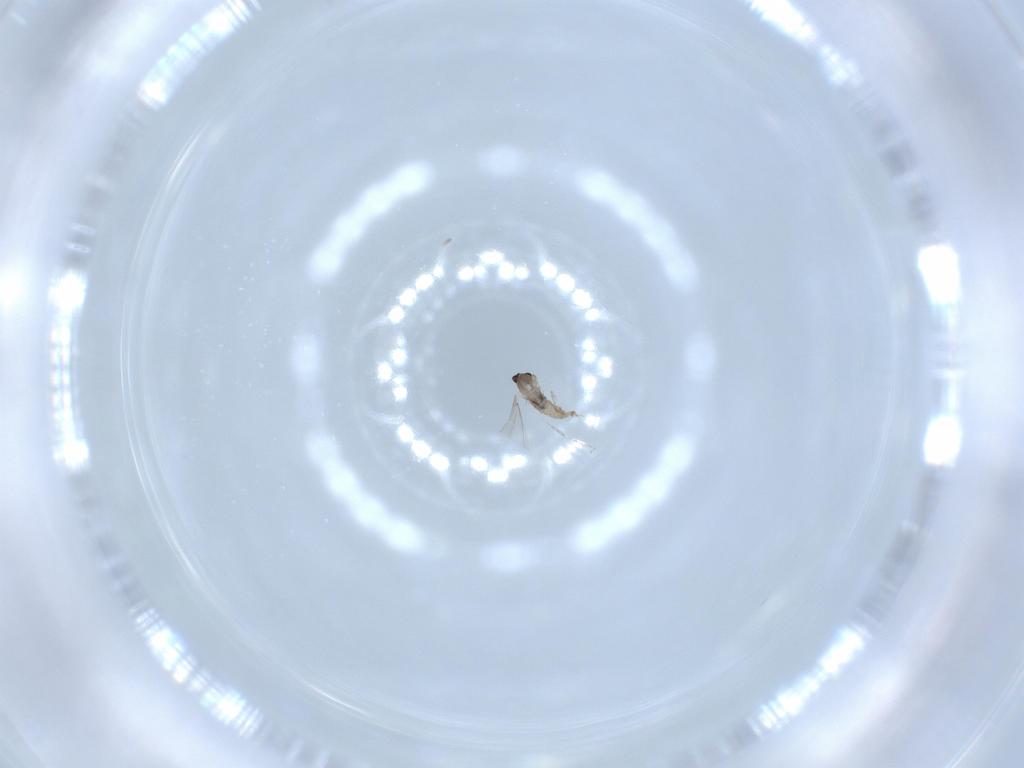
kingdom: Animalia
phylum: Arthropoda
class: Insecta
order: Diptera
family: Cecidomyiidae
